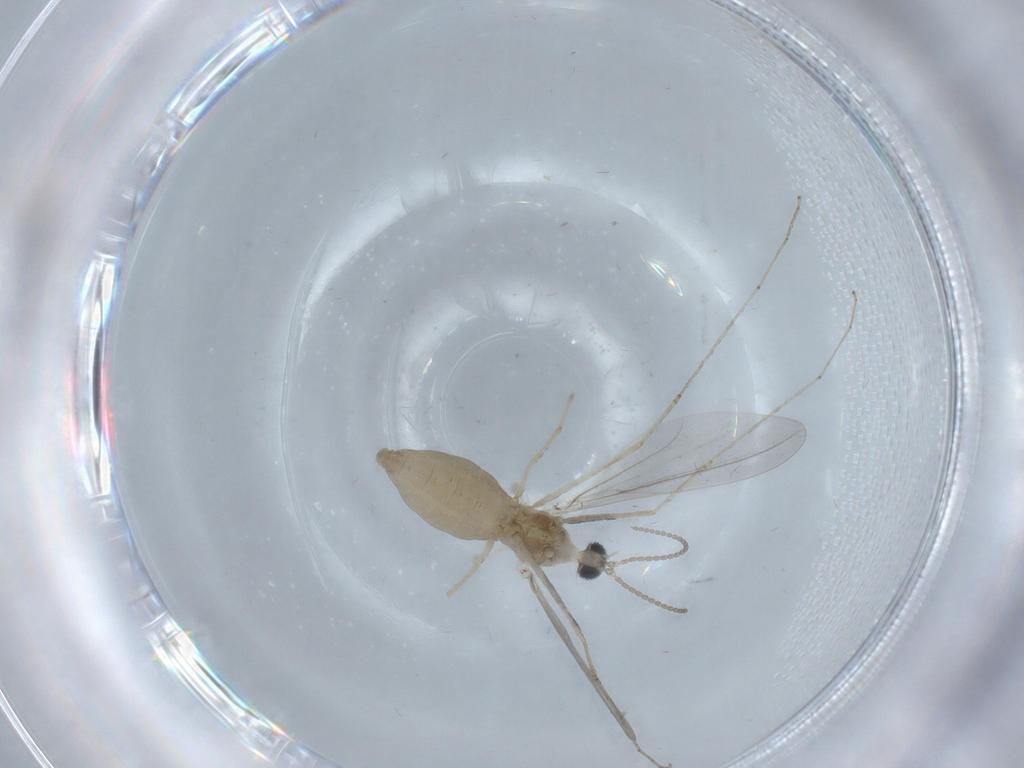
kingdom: Animalia
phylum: Arthropoda
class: Insecta
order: Diptera
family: Cecidomyiidae
